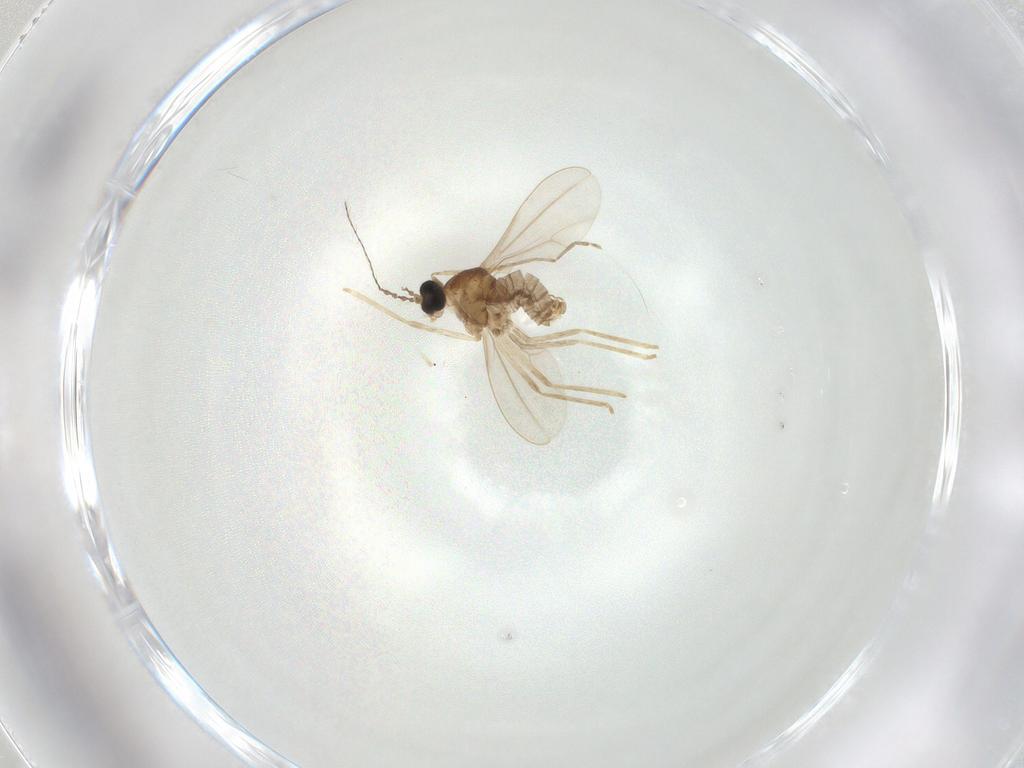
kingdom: Animalia
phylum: Arthropoda
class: Insecta
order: Diptera
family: Cecidomyiidae
